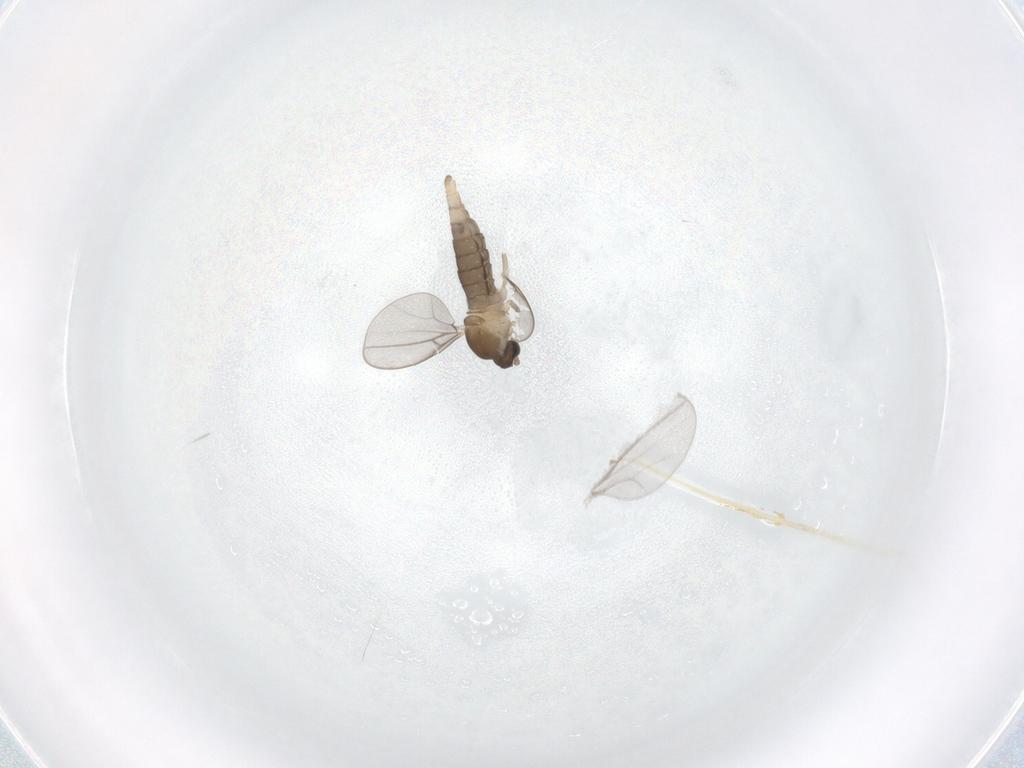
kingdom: Animalia
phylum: Arthropoda
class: Insecta
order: Diptera
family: Cecidomyiidae
